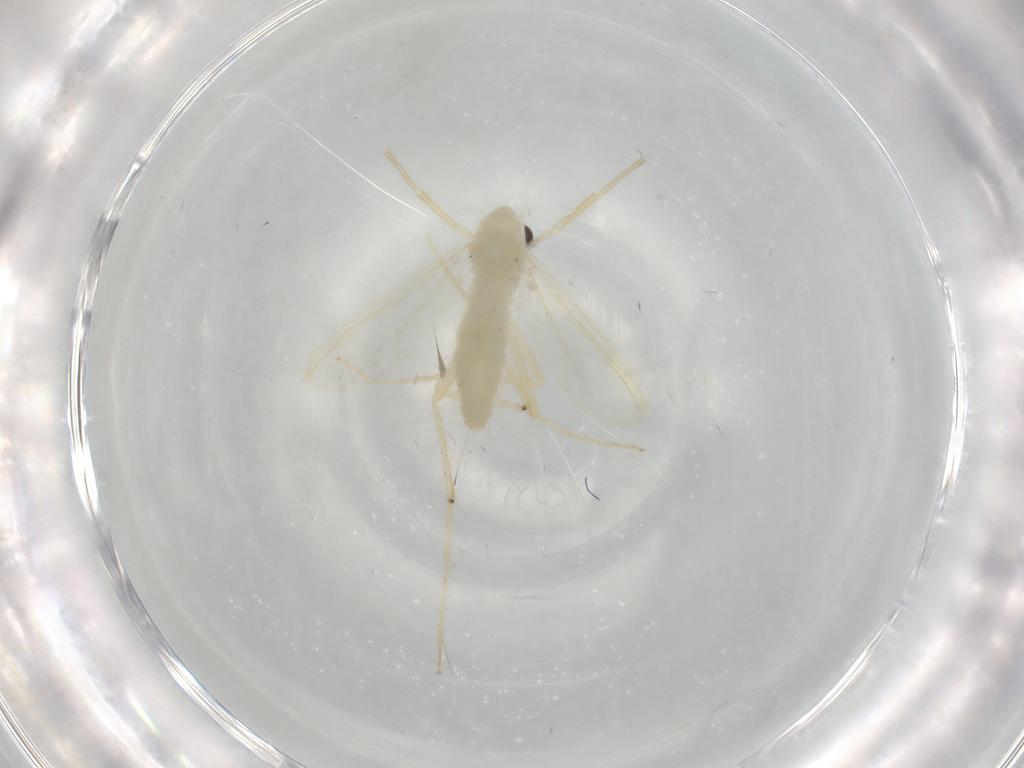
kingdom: Animalia
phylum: Arthropoda
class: Insecta
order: Diptera
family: Chironomidae
